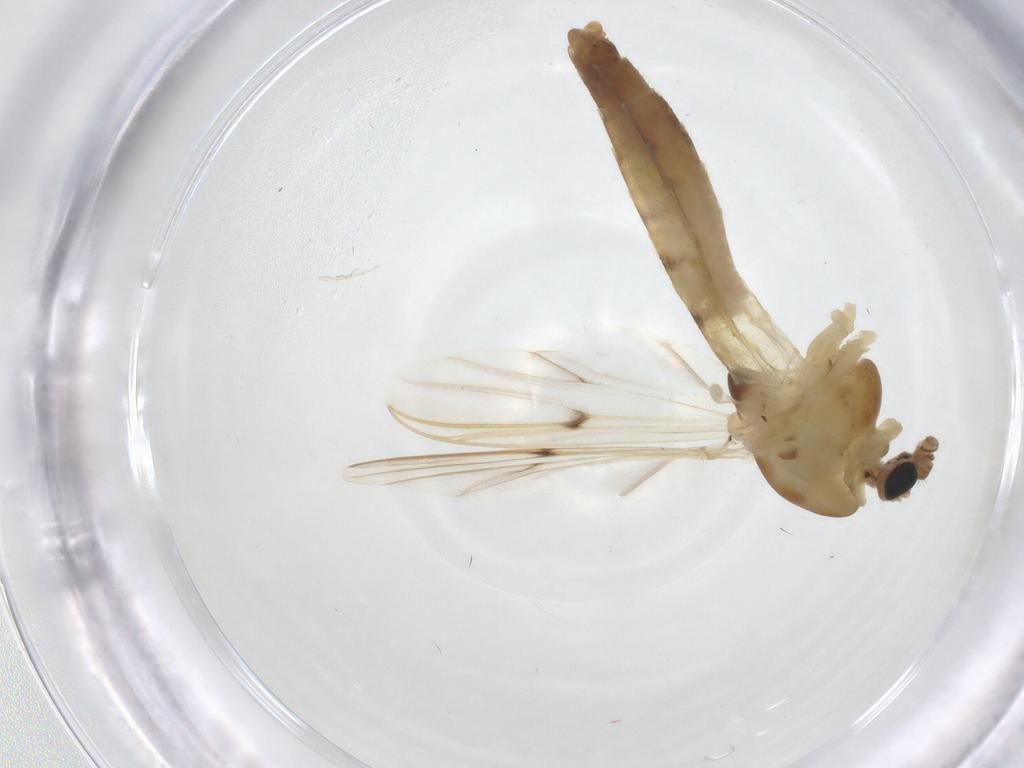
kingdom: Animalia
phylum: Arthropoda
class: Insecta
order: Diptera
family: Chironomidae
